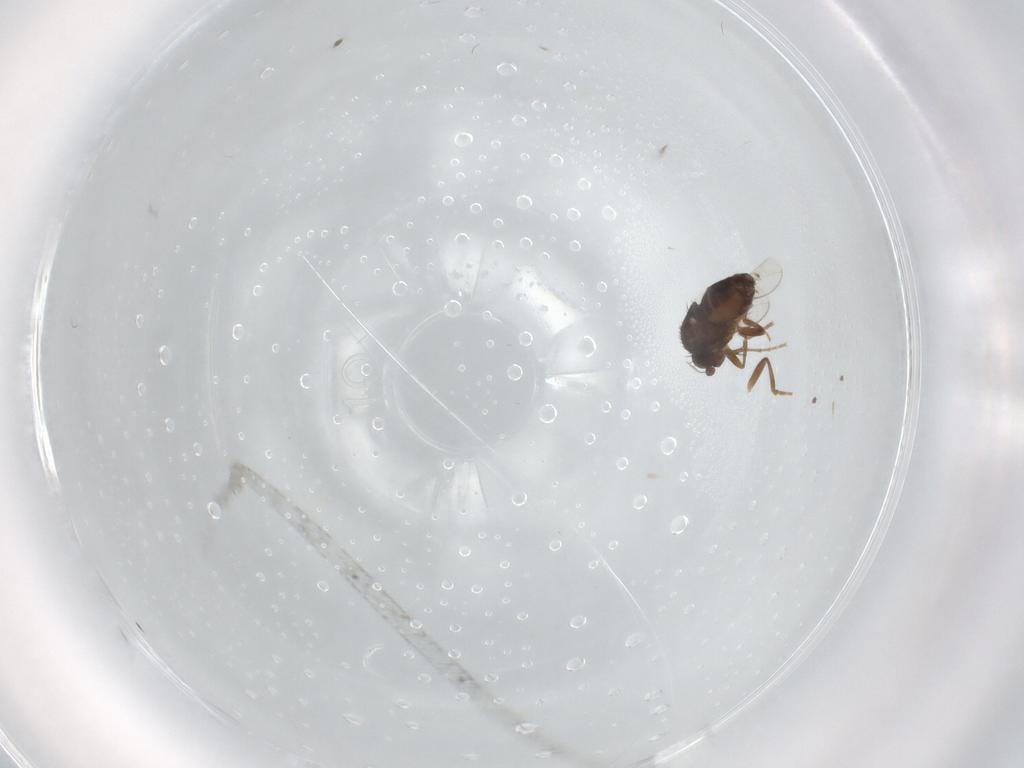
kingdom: Animalia
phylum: Arthropoda
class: Insecta
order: Diptera
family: Sphaeroceridae
